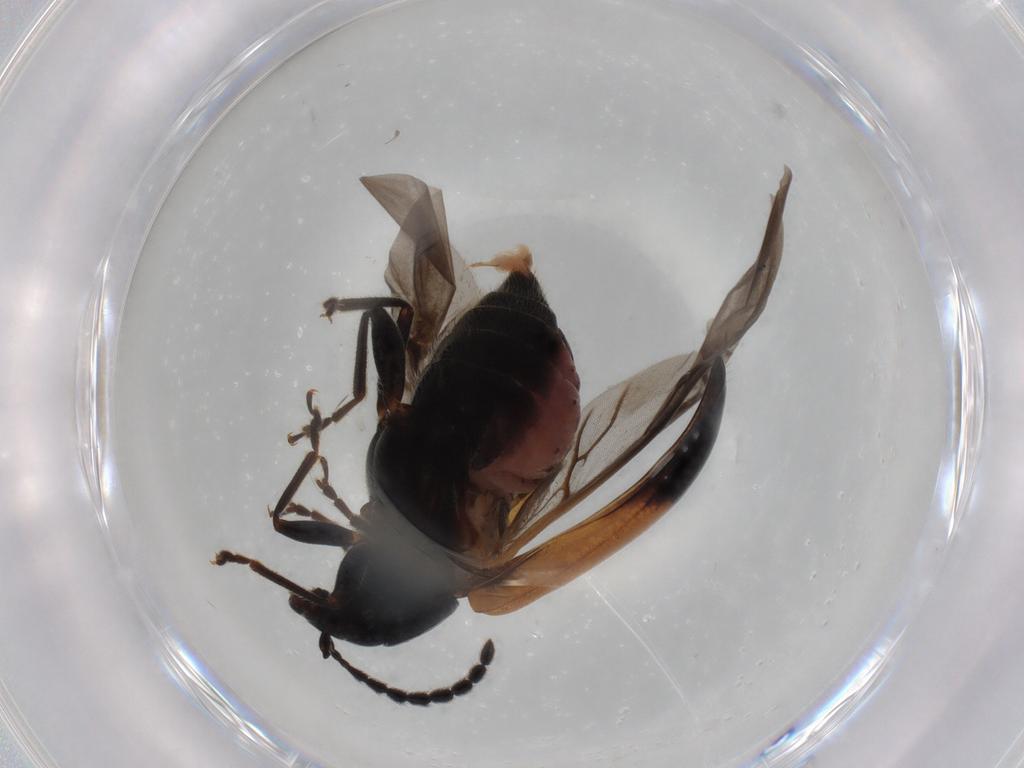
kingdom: Animalia
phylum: Arthropoda
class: Insecta
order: Coleoptera
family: Chrysomelidae
